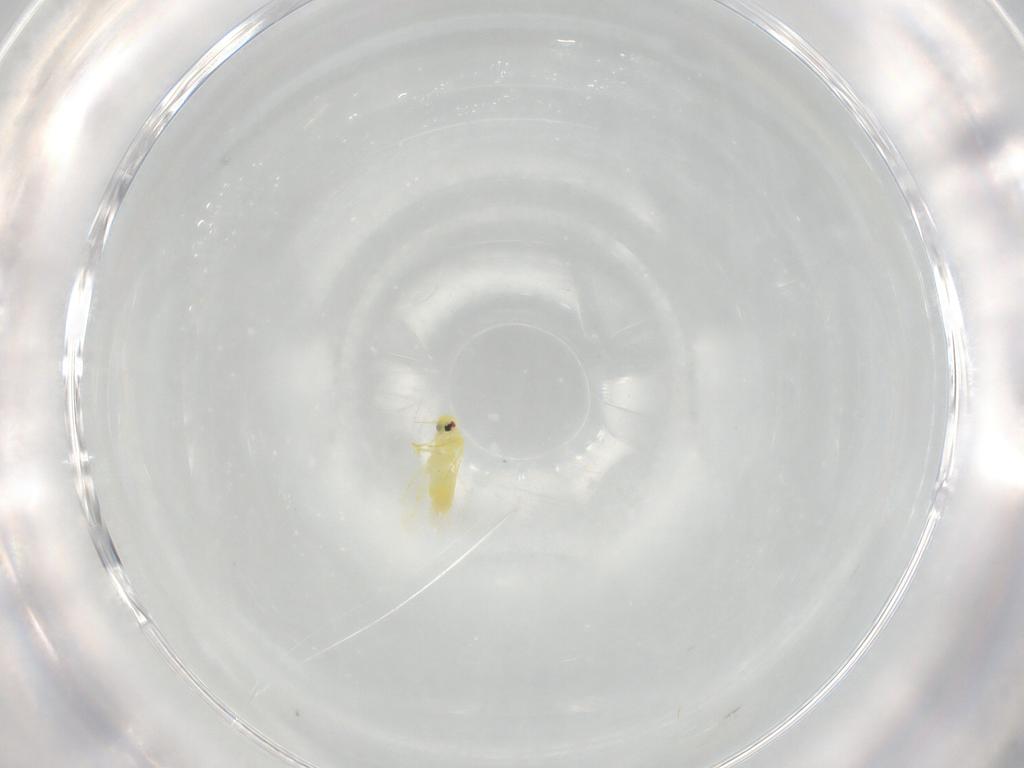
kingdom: Animalia
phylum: Arthropoda
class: Insecta
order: Hemiptera
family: Aleyrodidae
